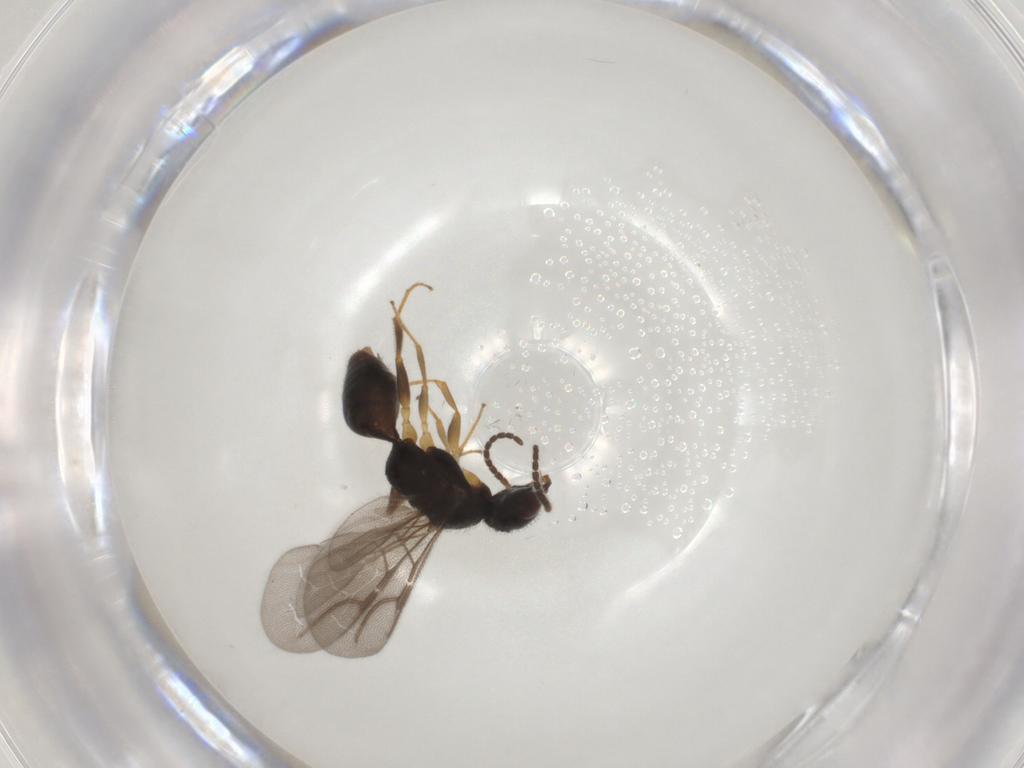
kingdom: Animalia
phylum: Arthropoda
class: Insecta
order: Hymenoptera
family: Bethylidae
